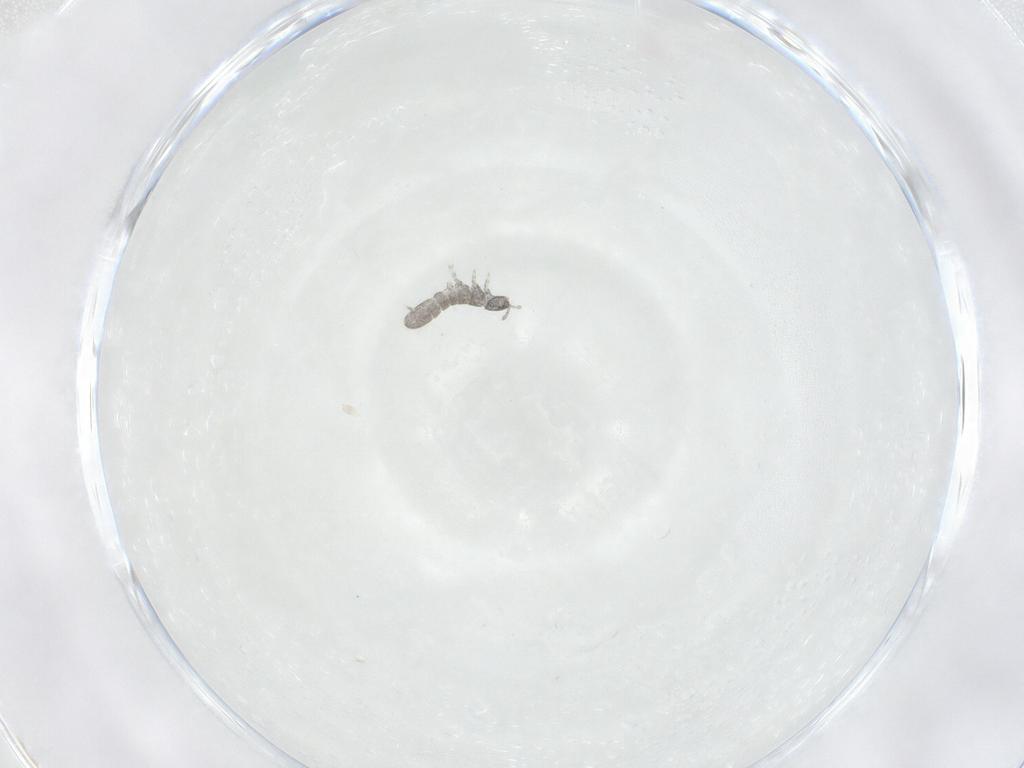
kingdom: Animalia
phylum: Arthropoda
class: Collembola
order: Entomobryomorpha
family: Isotomidae
